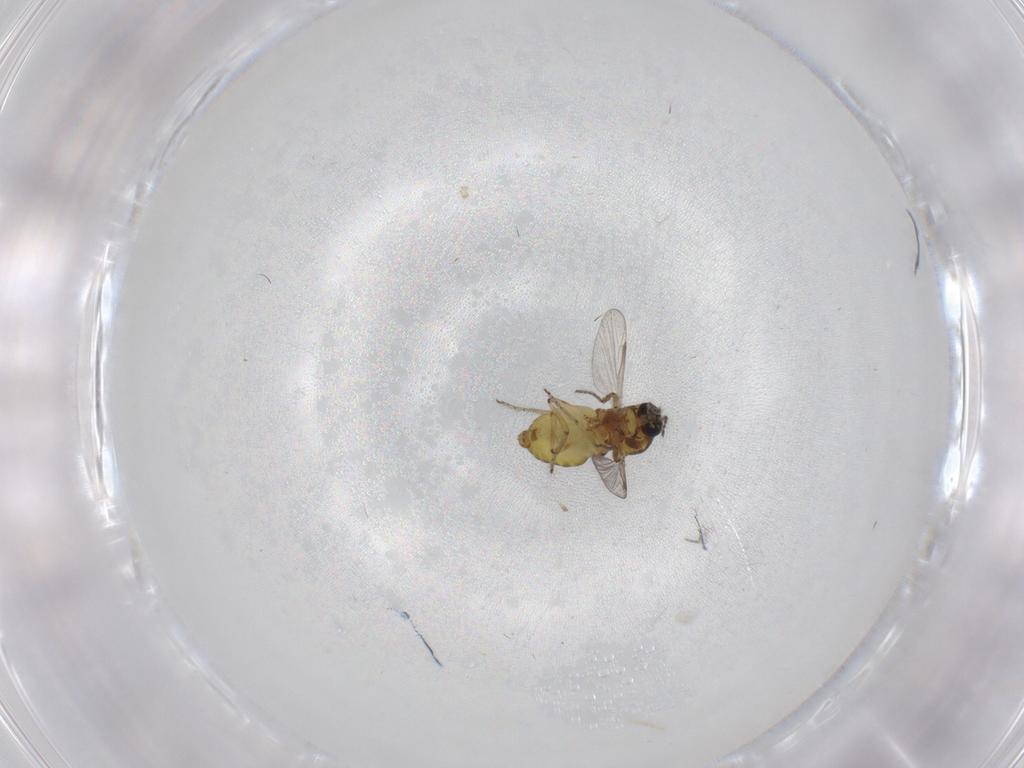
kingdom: Animalia
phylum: Arthropoda
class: Insecta
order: Diptera
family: Ceratopogonidae
